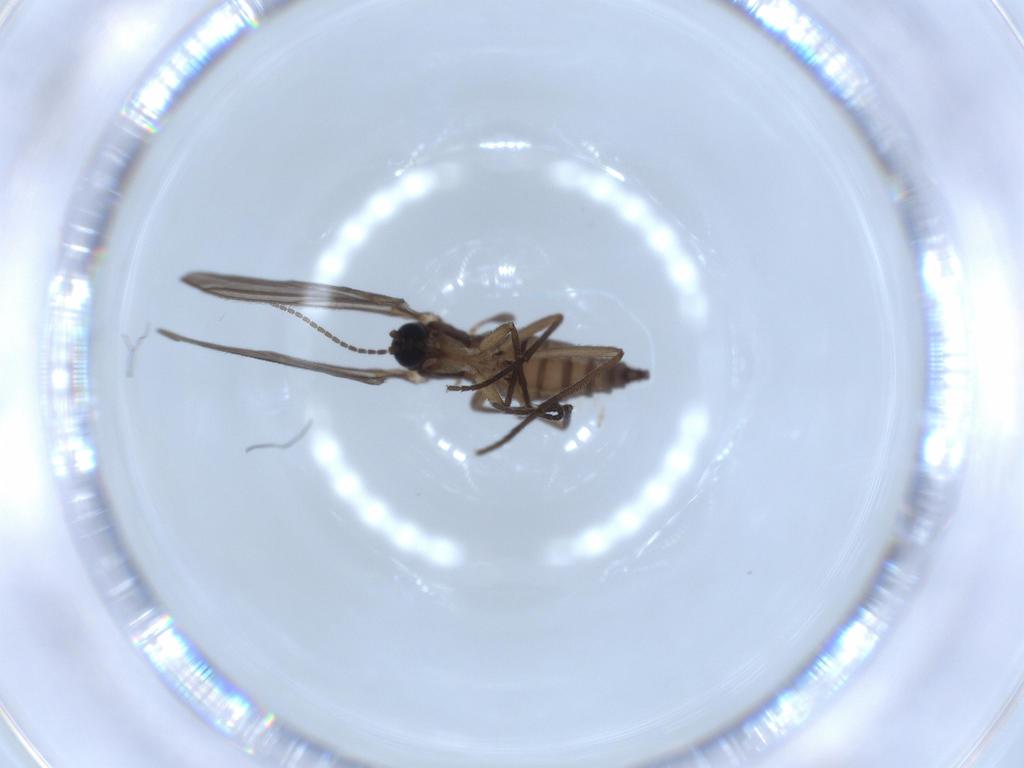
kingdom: Animalia
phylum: Arthropoda
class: Insecta
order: Diptera
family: Sciaridae
